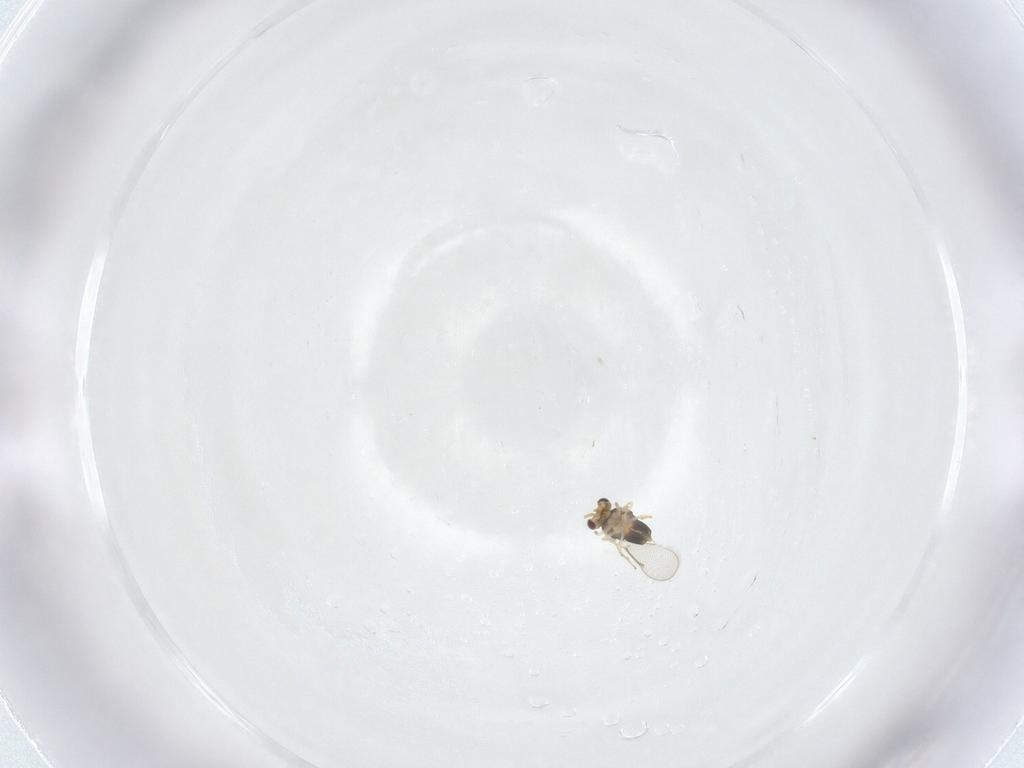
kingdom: Animalia
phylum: Arthropoda
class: Insecta
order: Hymenoptera
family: Aphelinidae
